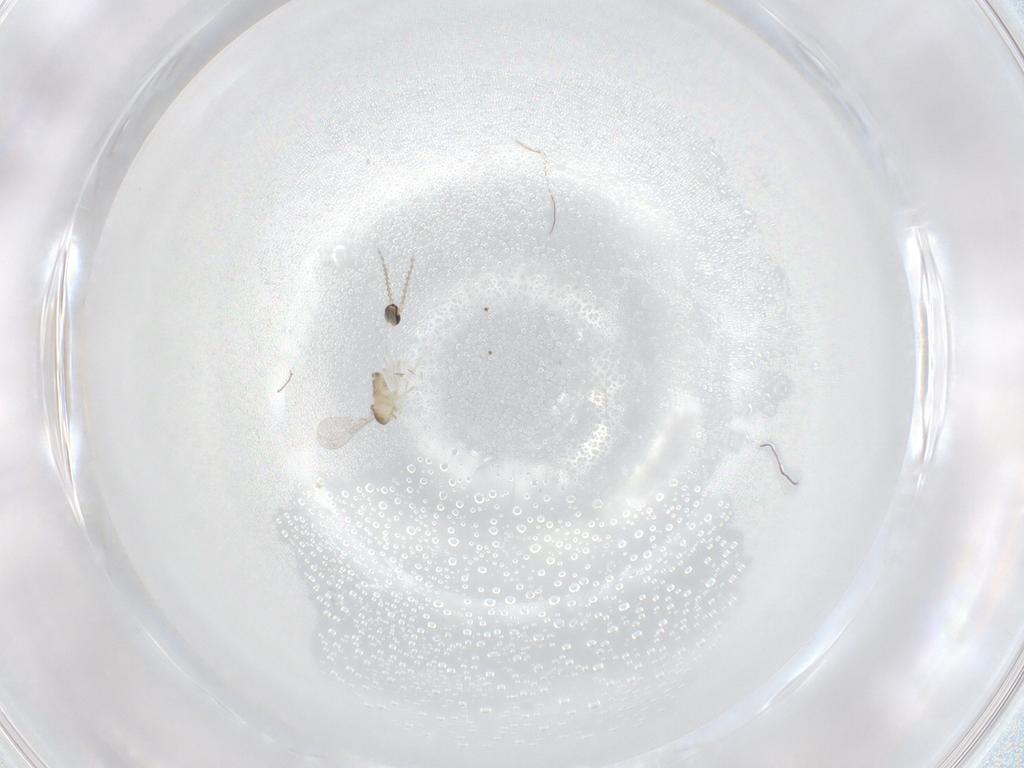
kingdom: Animalia
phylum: Arthropoda
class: Insecta
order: Diptera
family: Cecidomyiidae
